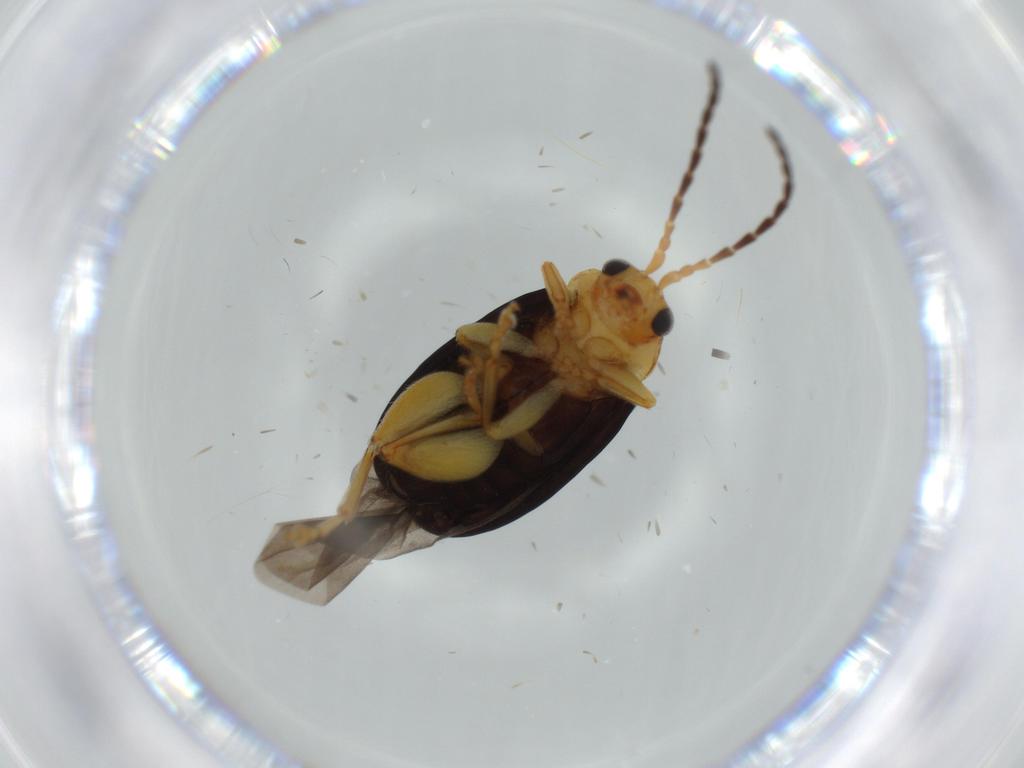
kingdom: Animalia
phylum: Arthropoda
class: Insecta
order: Coleoptera
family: Chrysomelidae
